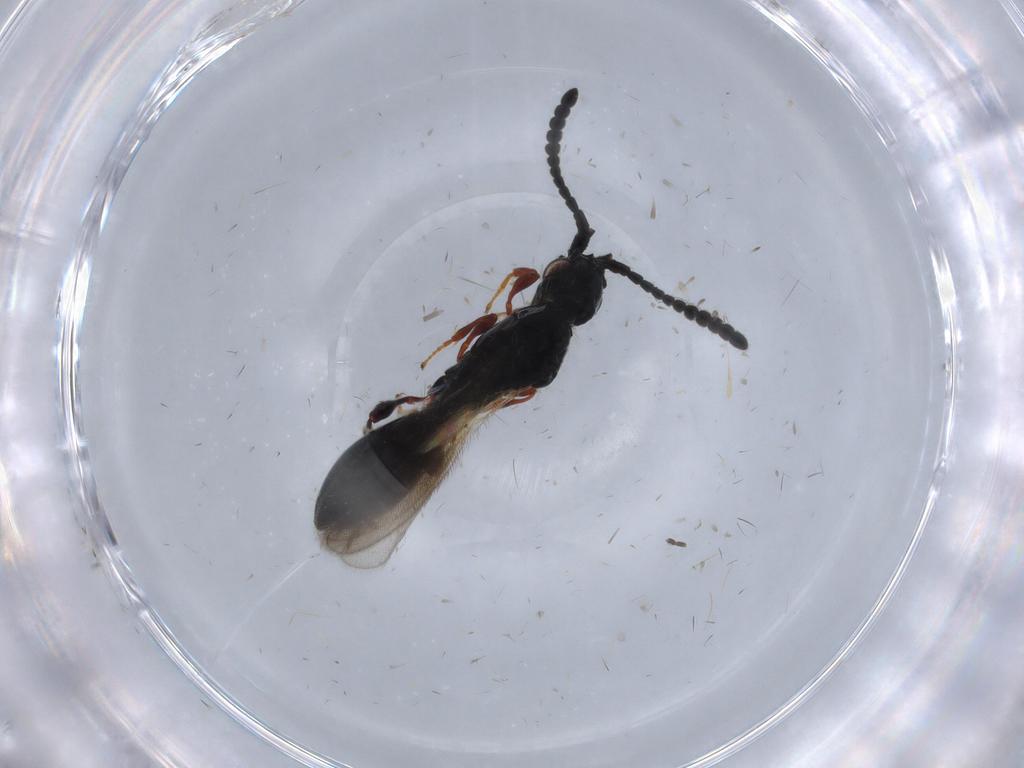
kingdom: Animalia
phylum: Arthropoda
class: Insecta
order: Hymenoptera
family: Diapriidae
